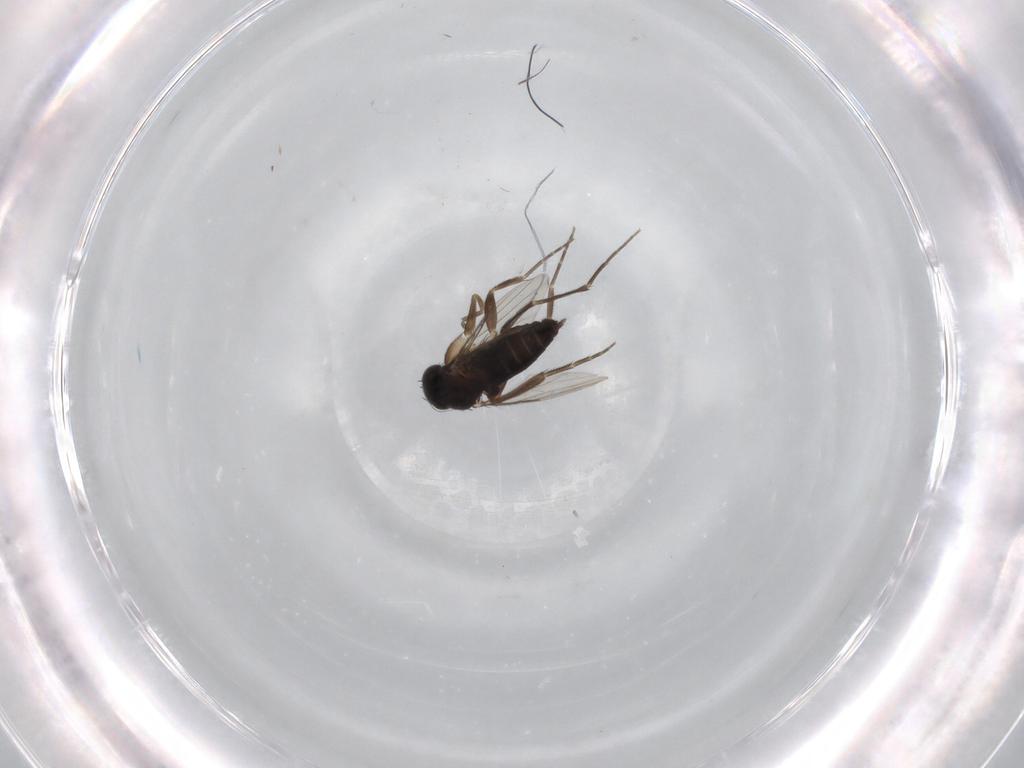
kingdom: Animalia
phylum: Arthropoda
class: Insecta
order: Diptera
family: Phoridae
